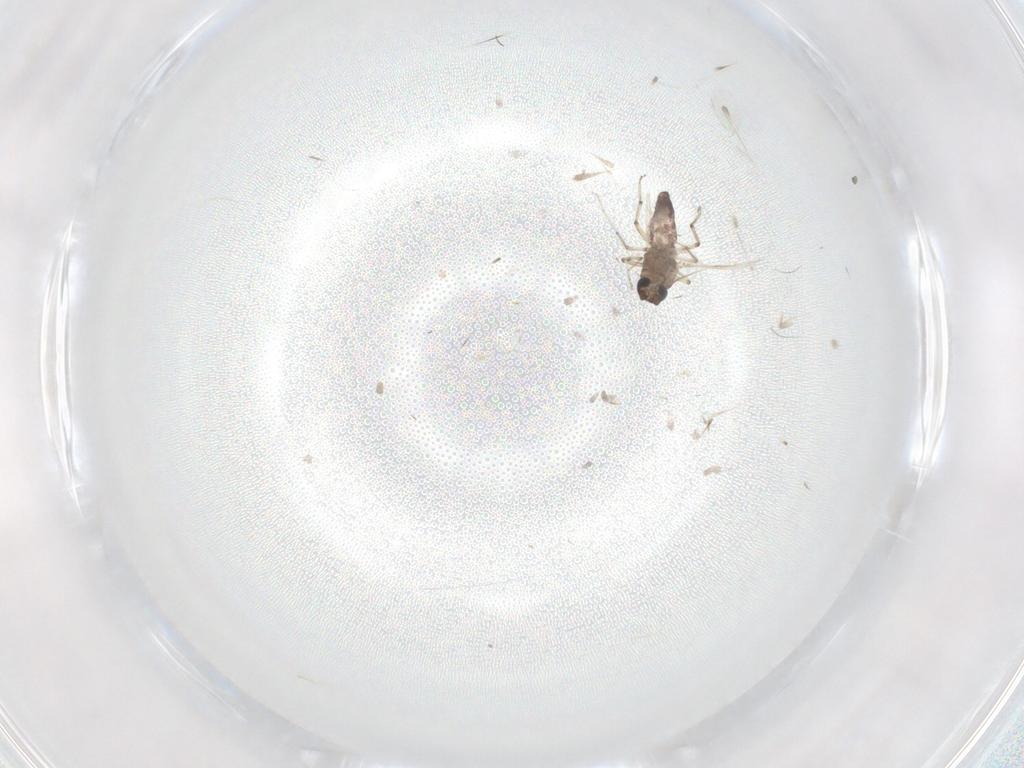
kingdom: Animalia
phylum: Arthropoda
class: Insecta
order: Diptera
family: Ceratopogonidae
